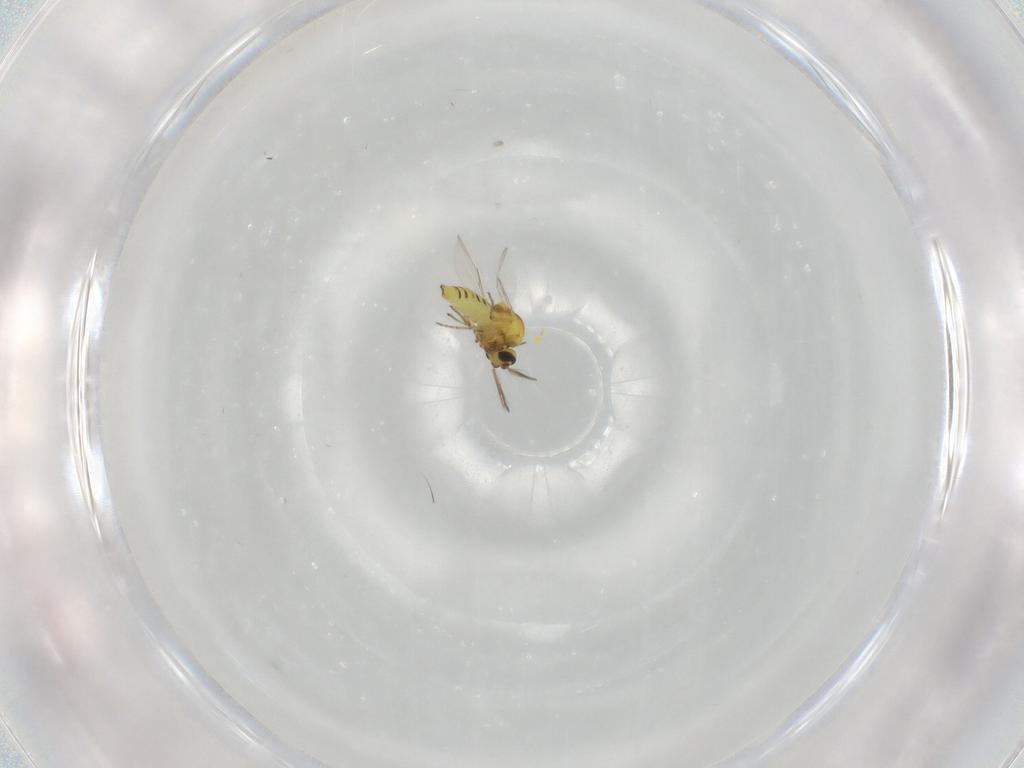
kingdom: Animalia
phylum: Arthropoda
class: Insecta
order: Diptera
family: Ceratopogonidae
